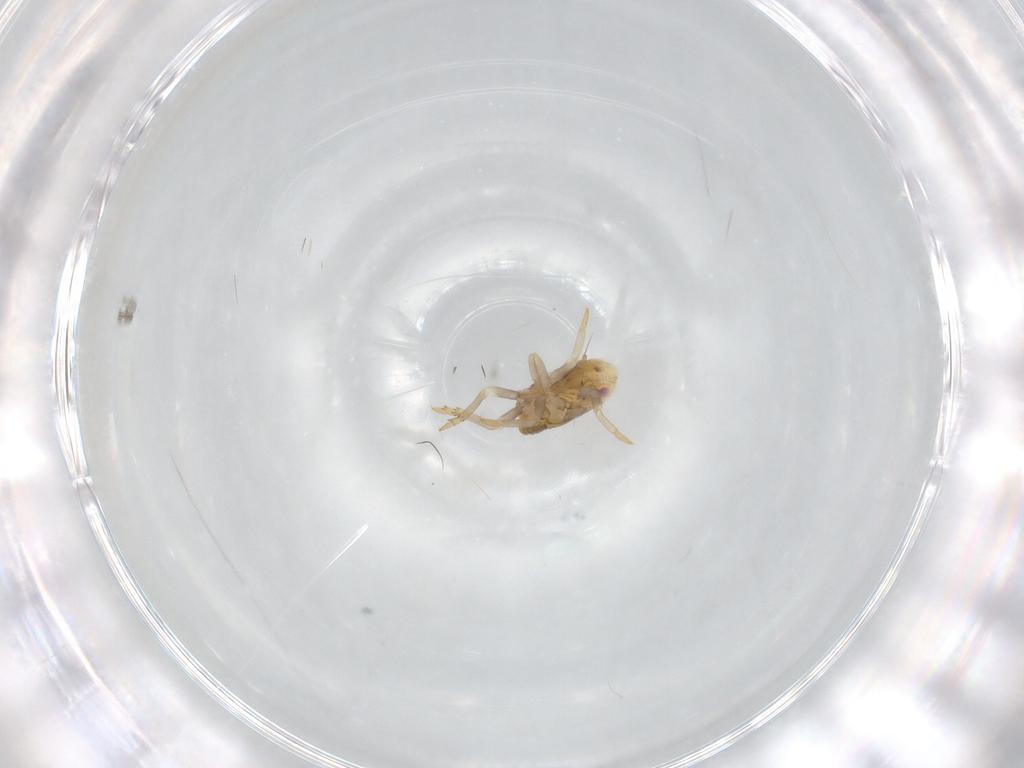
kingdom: Animalia
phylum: Arthropoda
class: Insecta
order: Hemiptera
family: Flatidae
